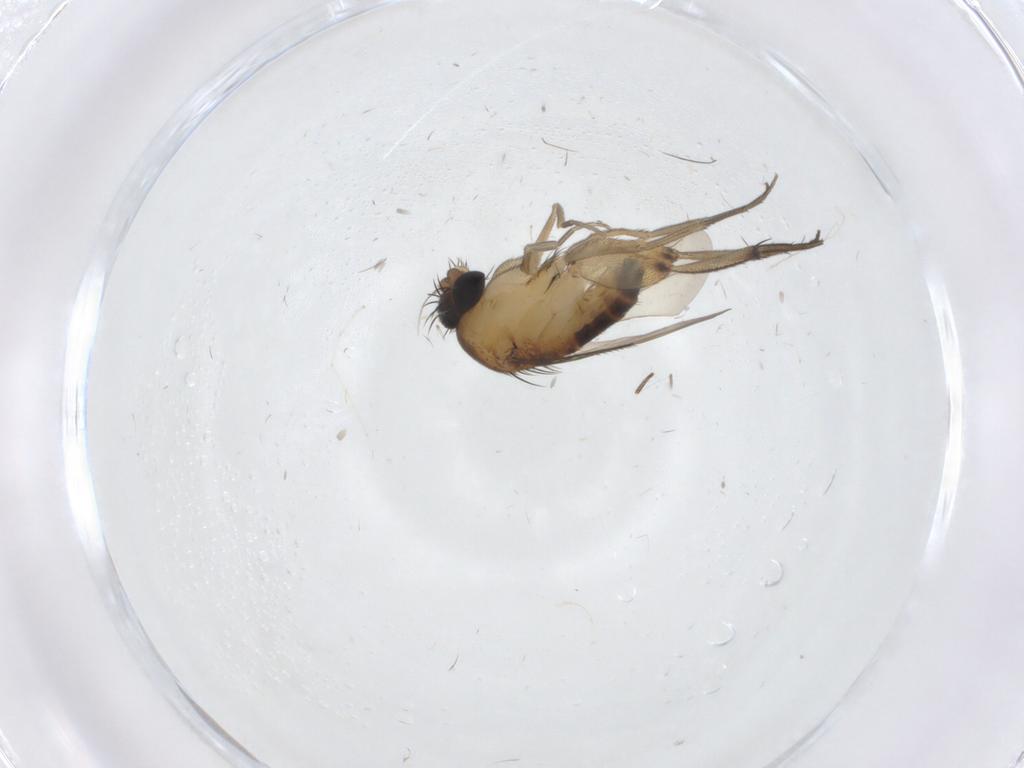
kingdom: Animalia
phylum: Arthropoda
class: Insecta
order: Diptera
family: Phoridae
